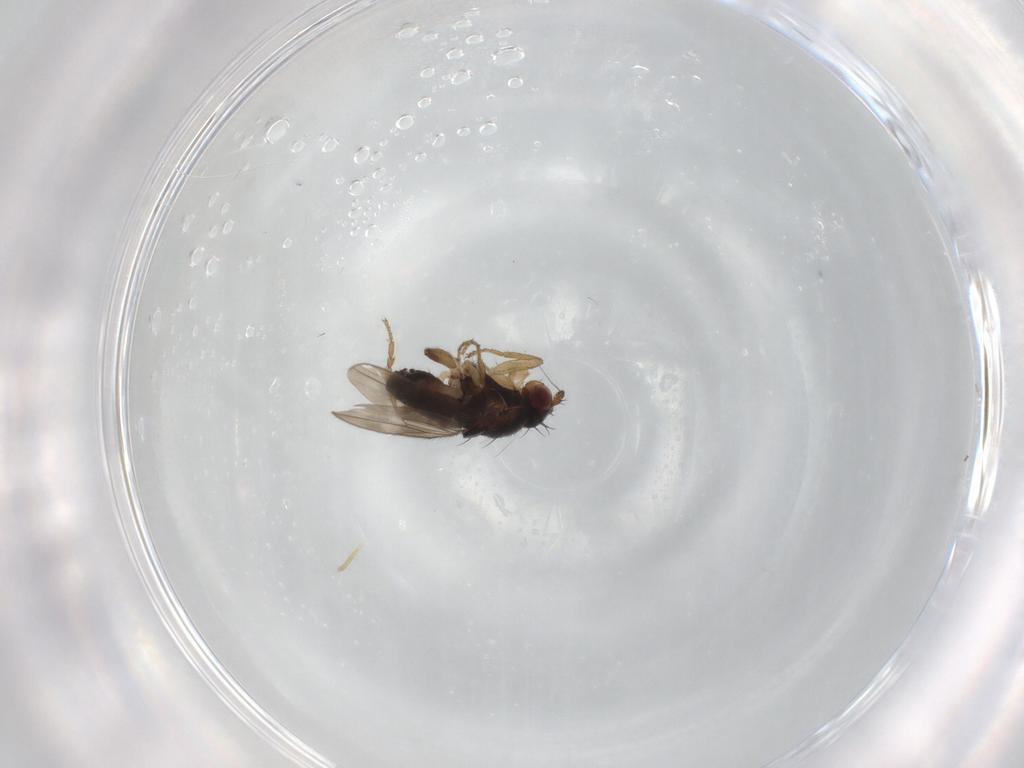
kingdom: Animalia
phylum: Arthropoda
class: Insecta
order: Diptera
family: Sphaeroceridae
